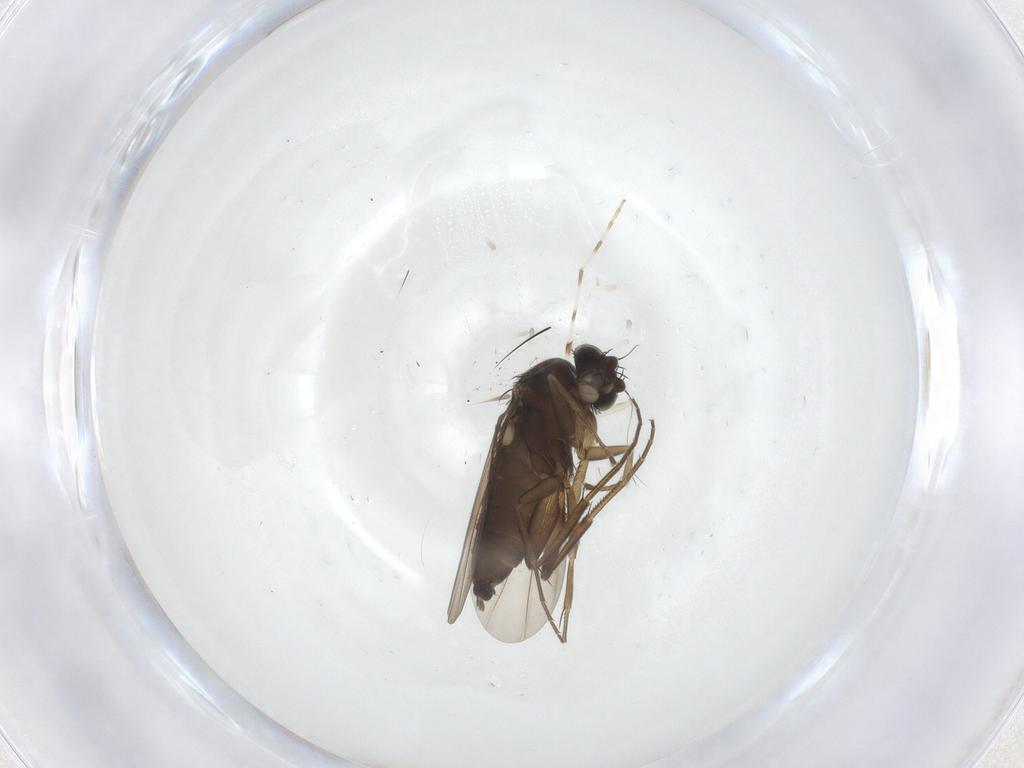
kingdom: Animalia
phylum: Arthropoda
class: Insecta
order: Diptera
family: Phoridae
